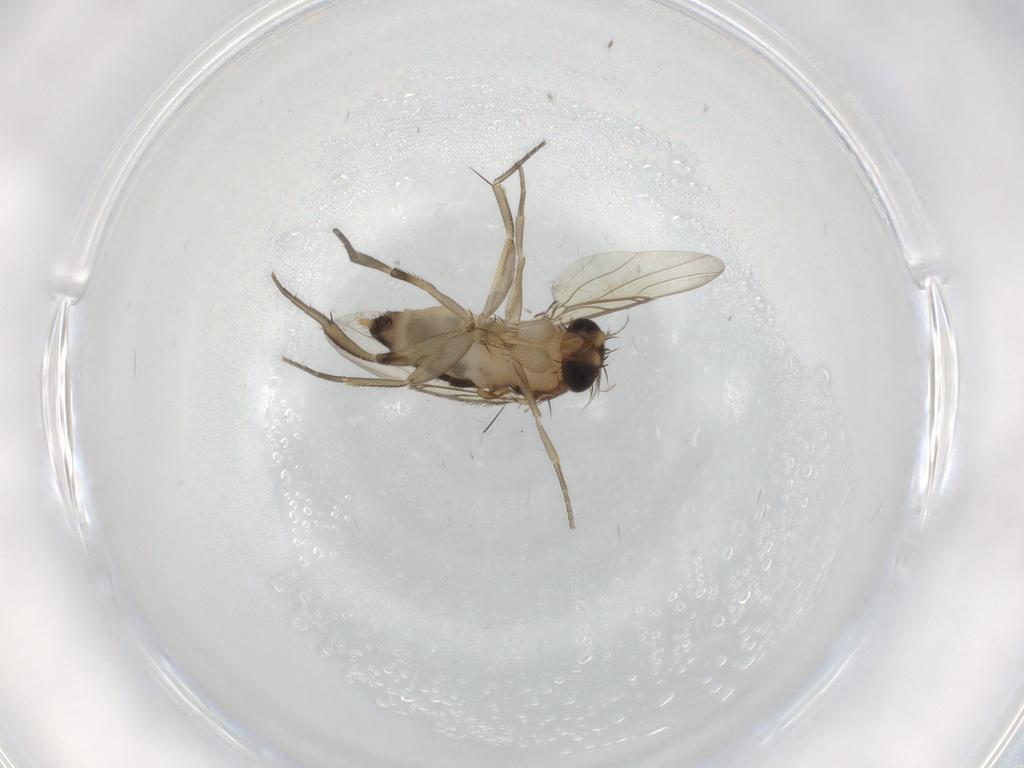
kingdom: Animalia
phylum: Arthropoda
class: Insecta
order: Diptera
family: Phoridae
